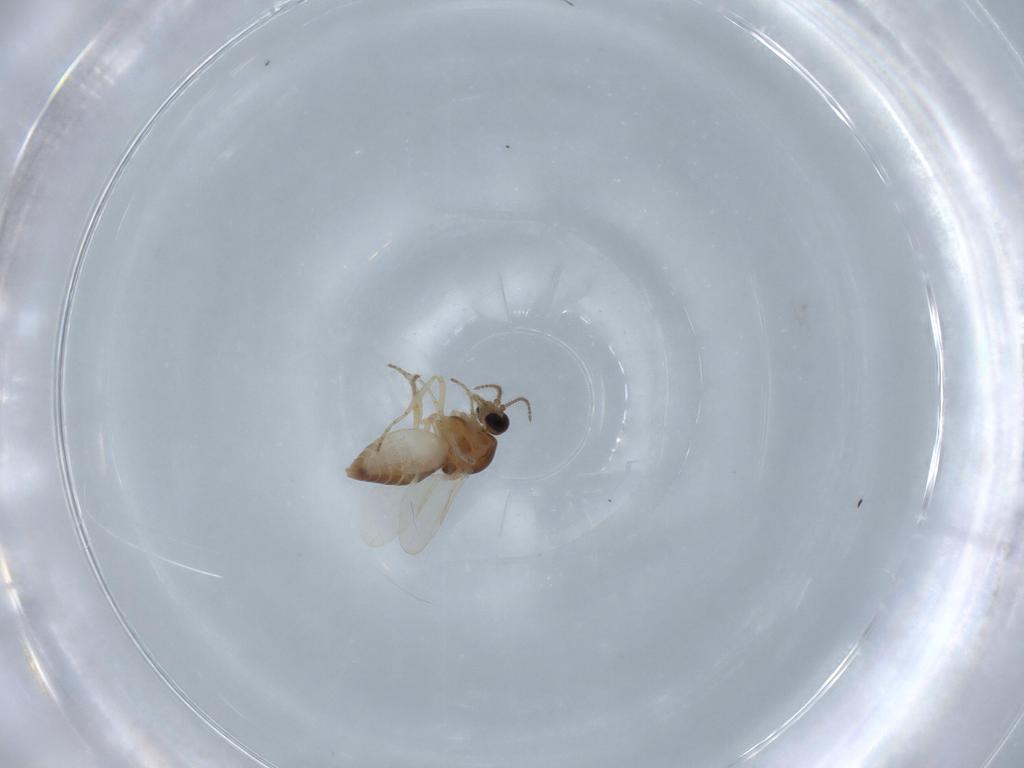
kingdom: Animalia
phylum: Arthropoda
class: Insecta
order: Diptera
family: Ceratopogonidae
